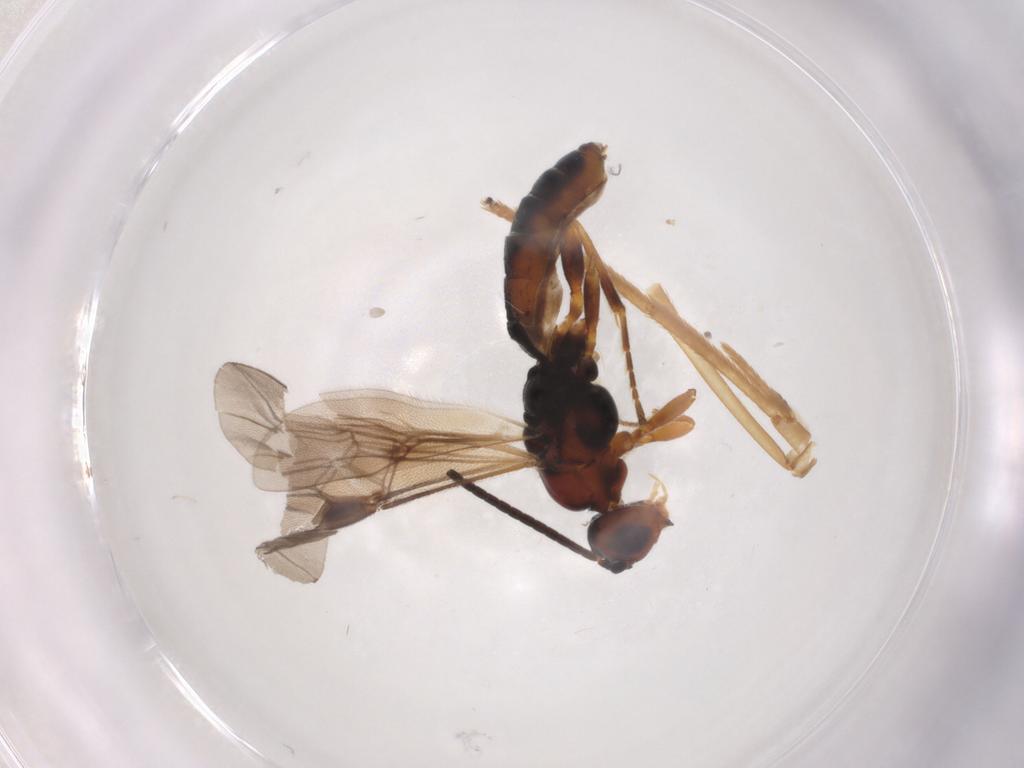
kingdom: Animalia
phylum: Arthropoda
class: Insecta
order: Hymenoptera
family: Braconidae
